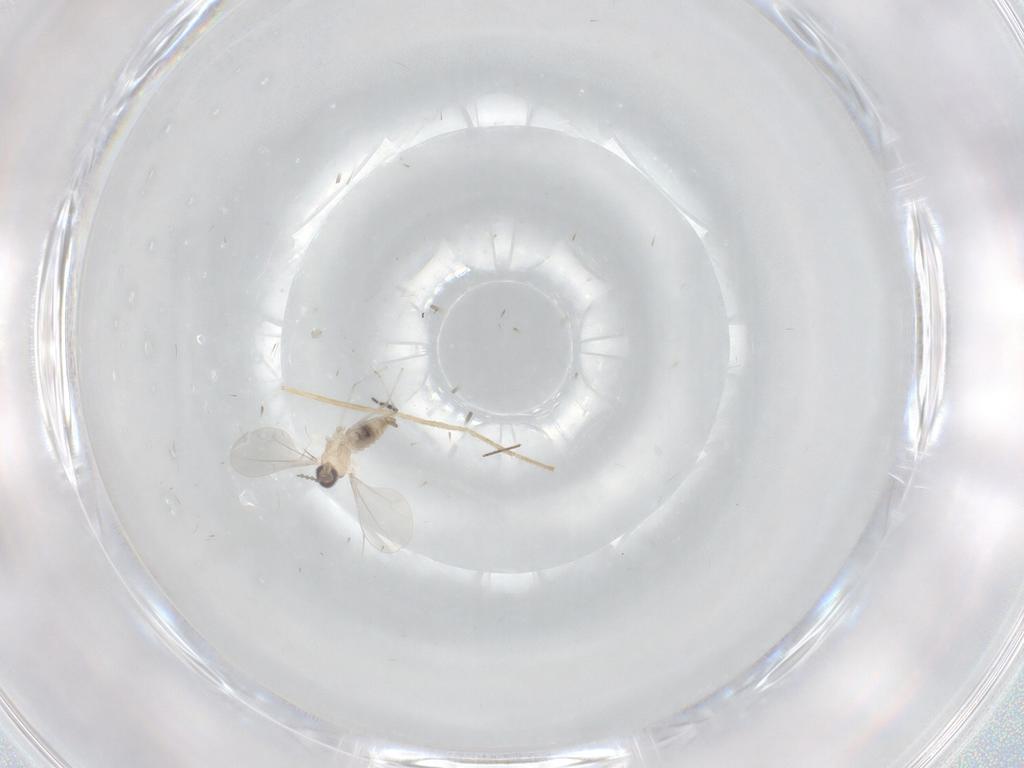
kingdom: Animalia
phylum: Arthropoda
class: Insecta
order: Diptera
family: Cecidomyiidae
